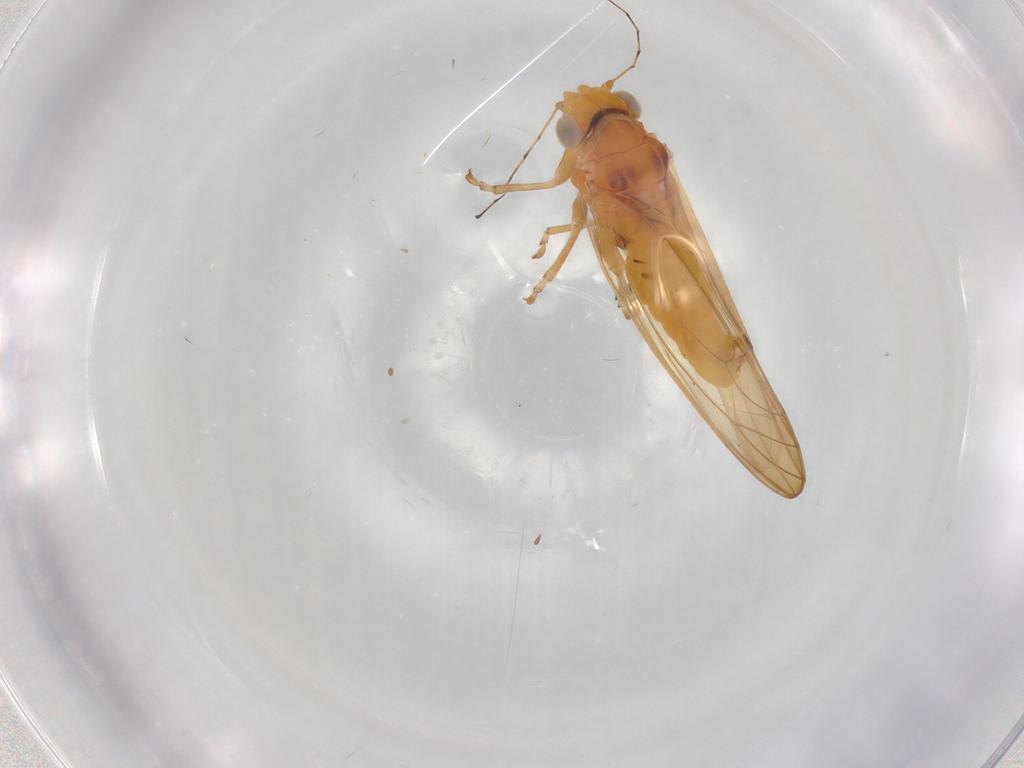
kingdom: Animalia
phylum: Arthropoda
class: Insecta
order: Hemiptera
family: Psylloidea_incertae_sedis
